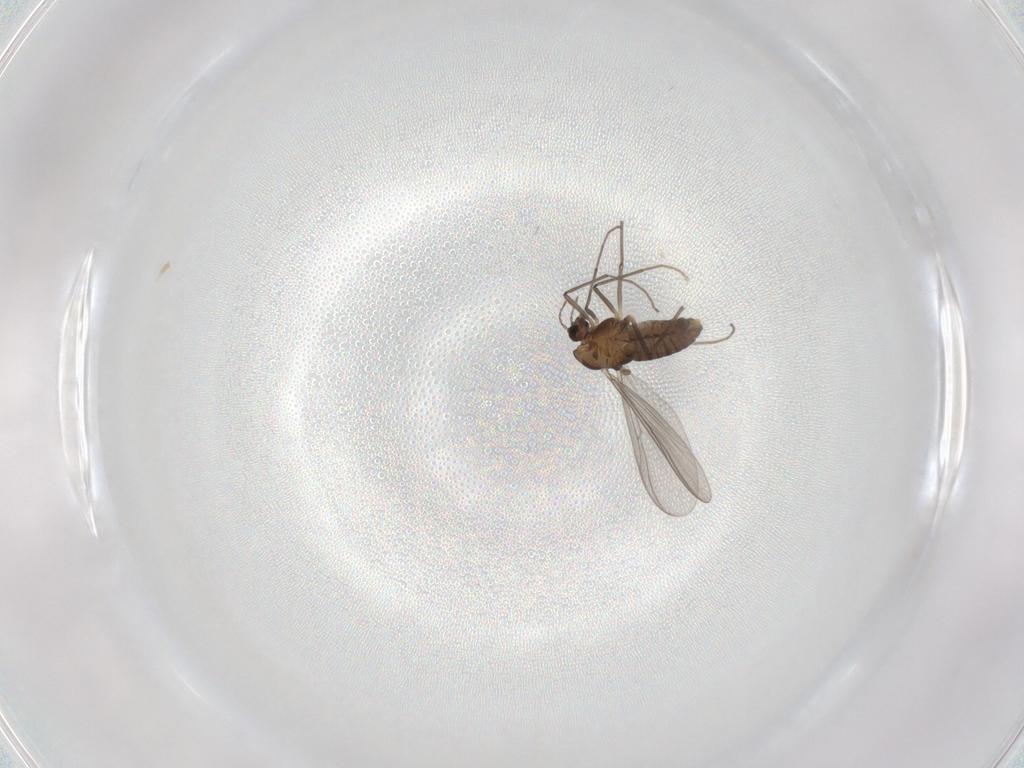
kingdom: Animalia
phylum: Arthropoda
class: Insecta
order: Diptera
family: Chironomidae
